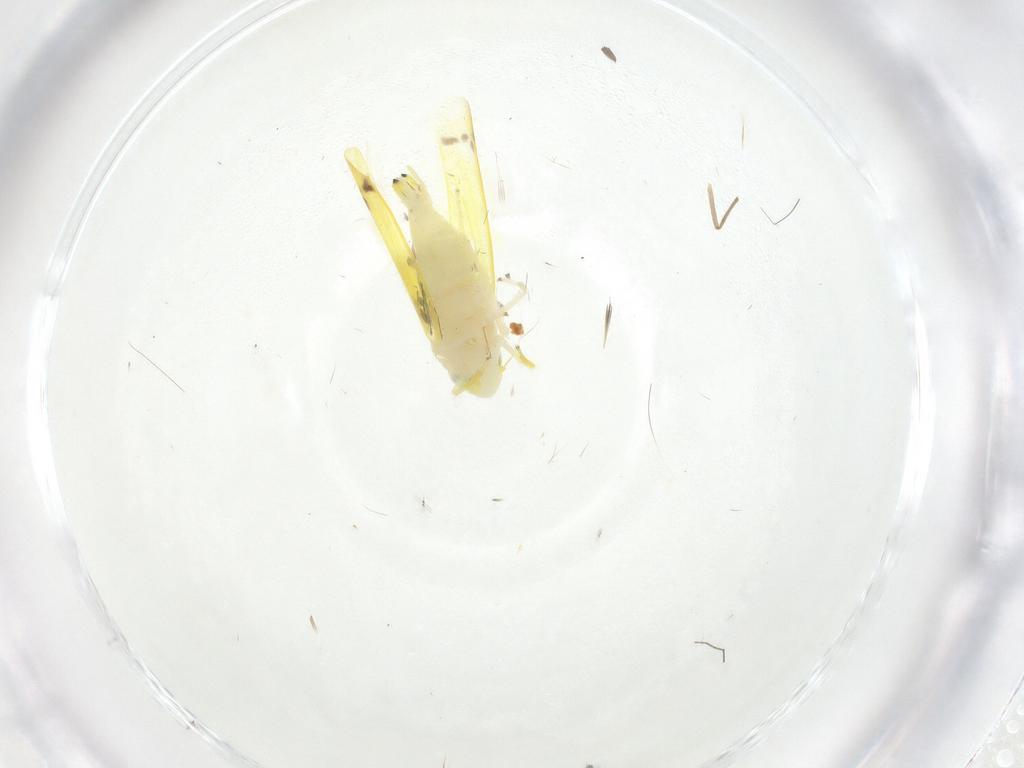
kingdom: Animalia
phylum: Arthropoda
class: Insecta
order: Hemiptera
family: Cicadellidae
